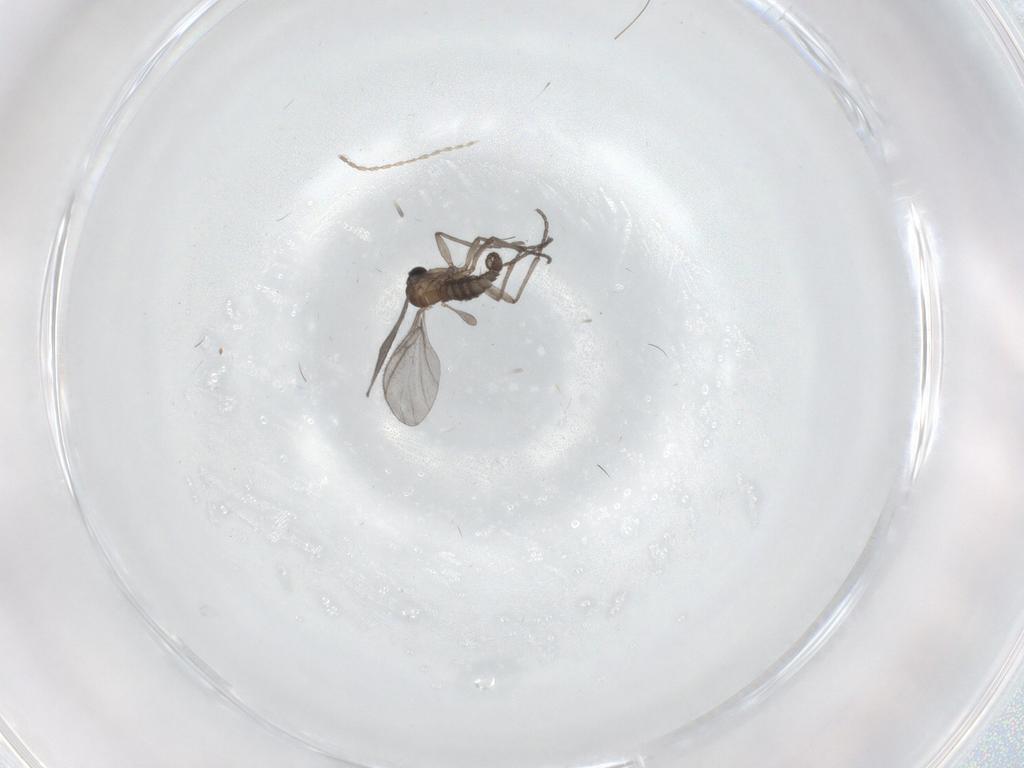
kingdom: Animalia
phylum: Arthropoda
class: Insecta
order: Diptera
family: Sciaridae
